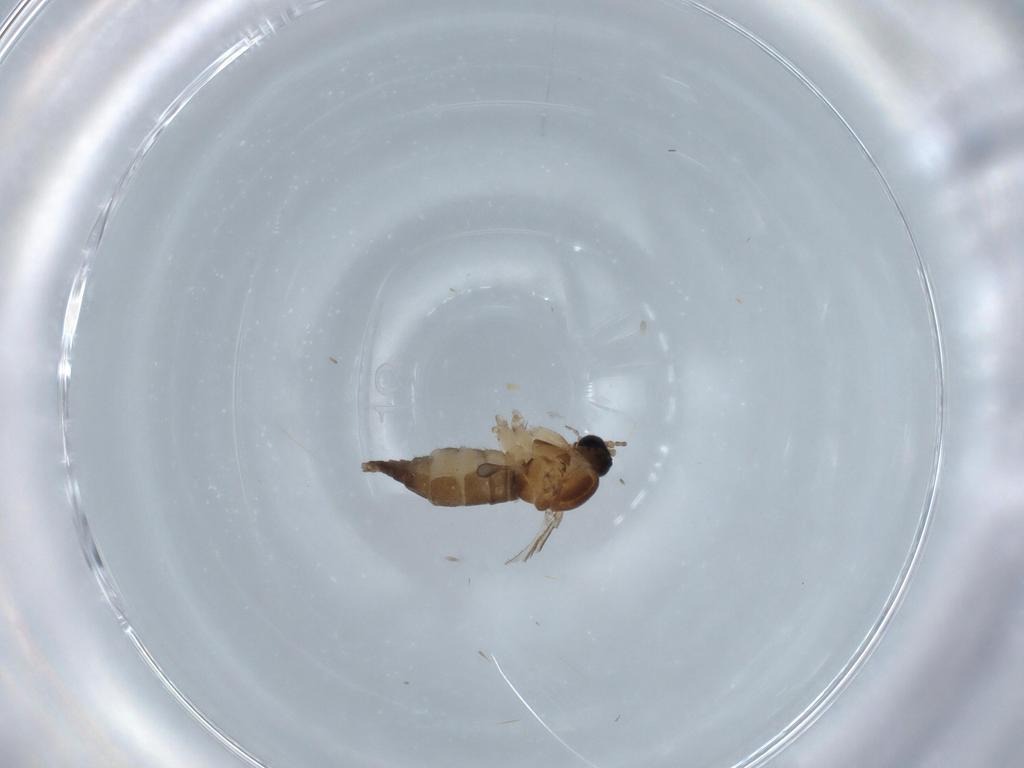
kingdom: Animalia
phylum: Arthropoda
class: Insecta
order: Diptera
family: Sciaridae
